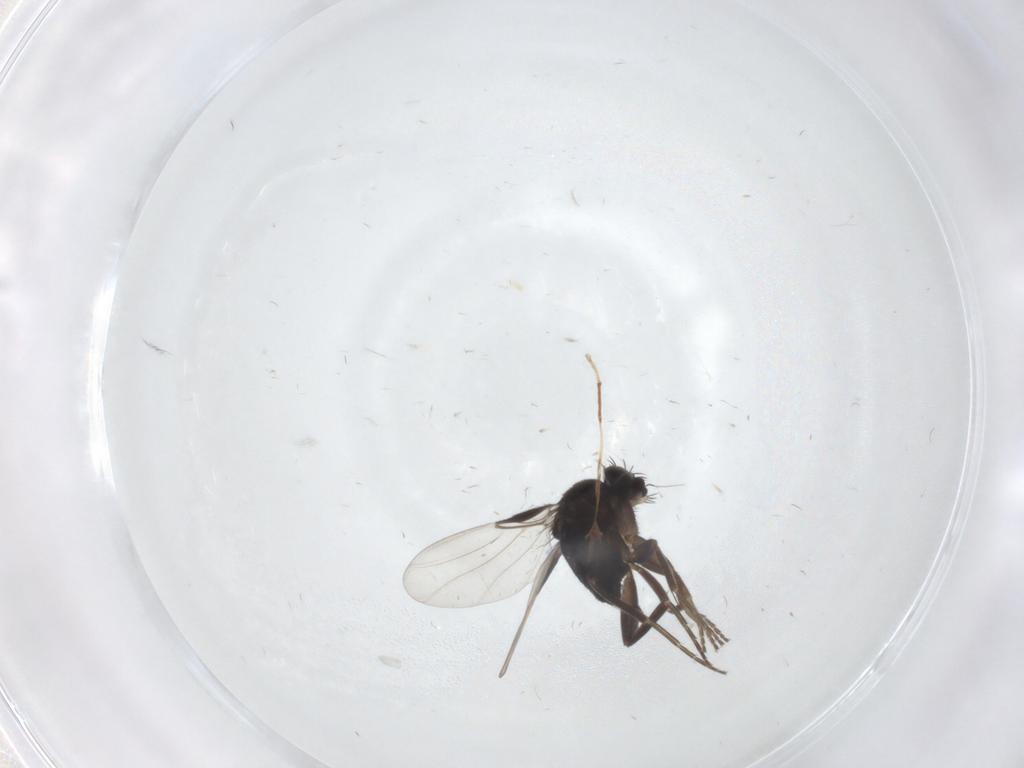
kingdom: Animalia
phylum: Arthropoda
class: Insecta
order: Diptera
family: Phoridae
